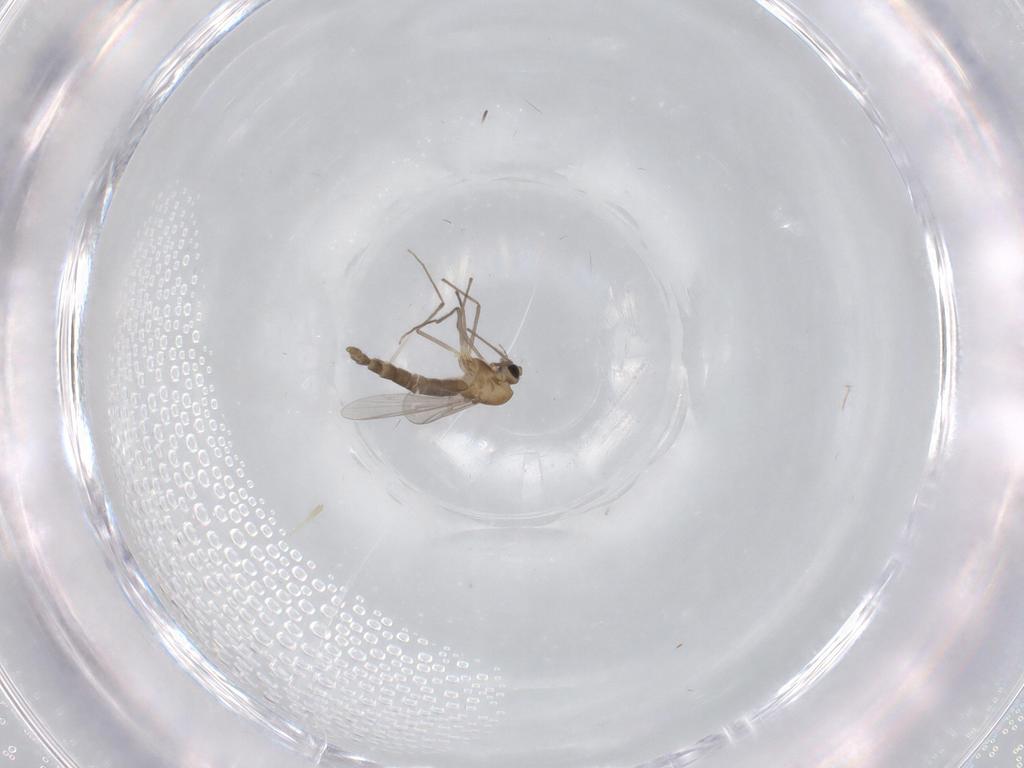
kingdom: Animalia
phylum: Arthropoda
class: Insecta
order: Diptera
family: Chironomidae
